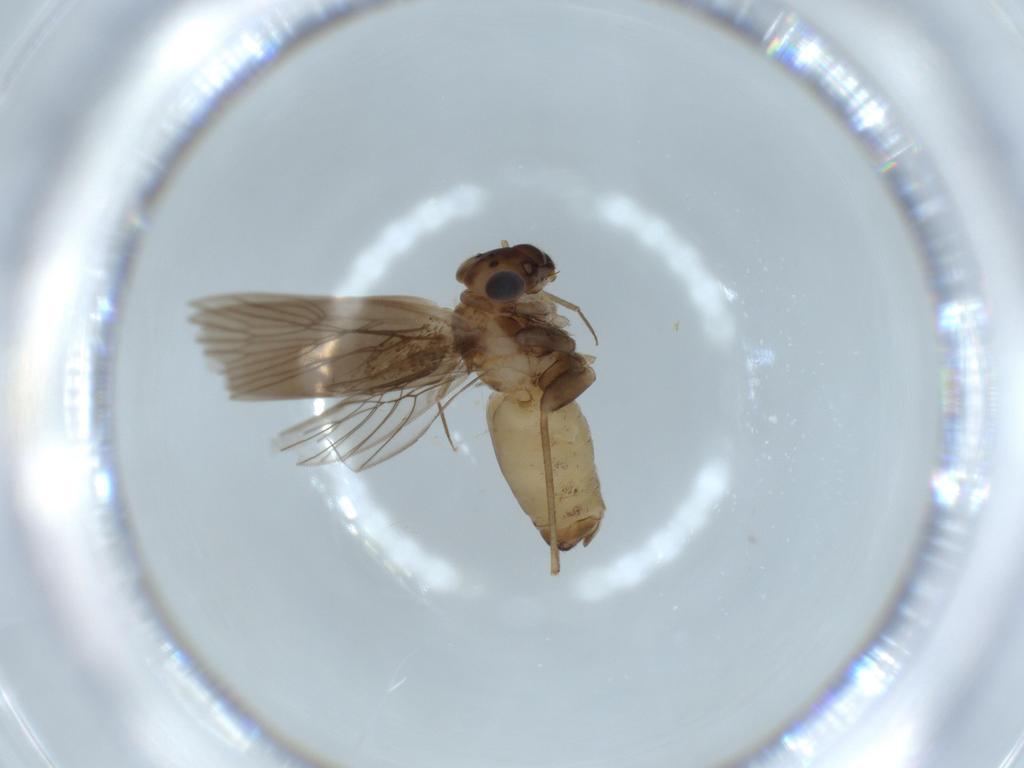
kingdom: Animalia
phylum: Arthropoda
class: Insecta
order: Psocodea
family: Lepidopsocidae
